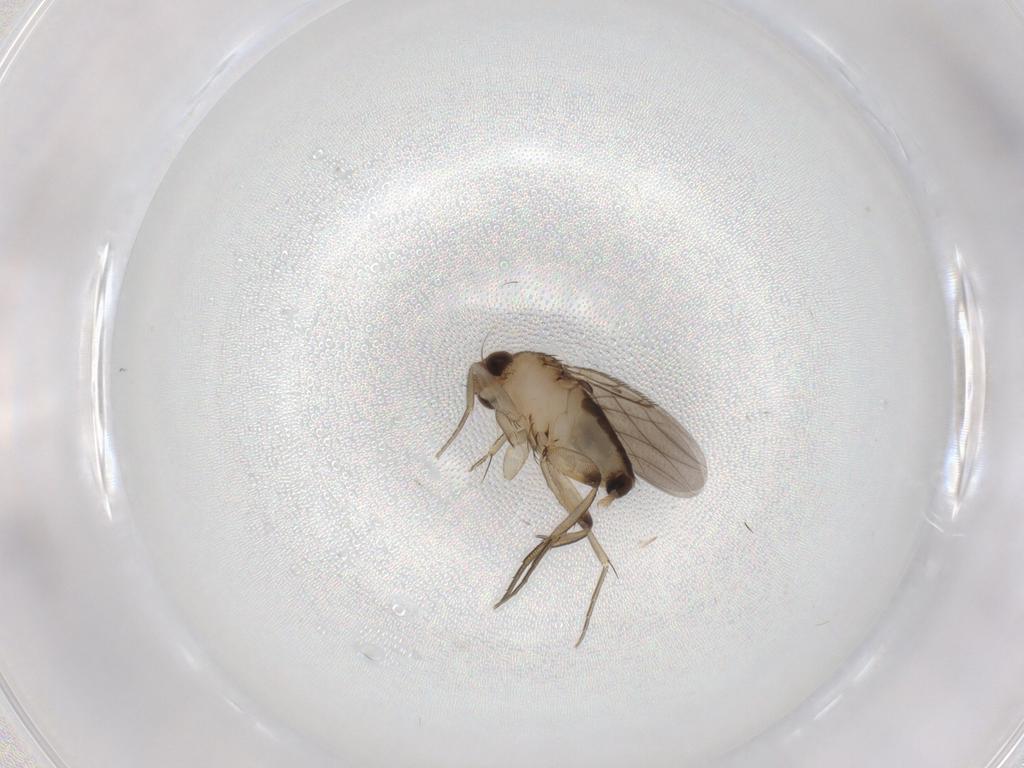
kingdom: Animalia
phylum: Arthropoda
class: Insecta
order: Diptera
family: Phoridae
